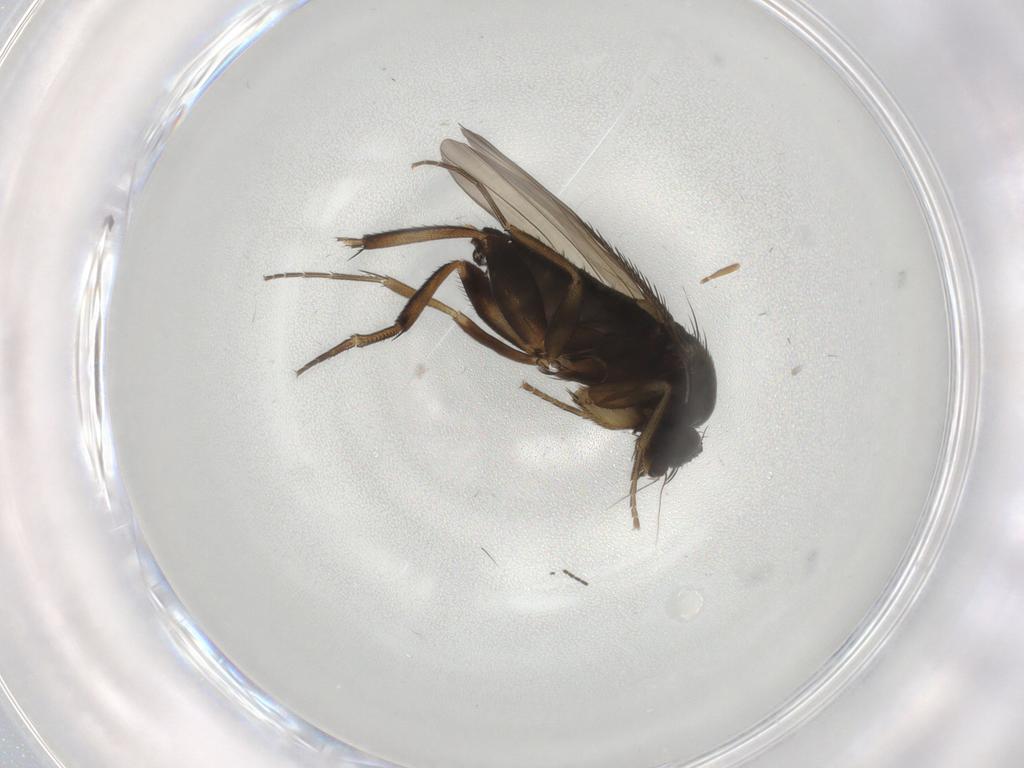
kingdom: Animalia
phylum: Arthropoda
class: Insecta
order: Diptera
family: Phoridae
